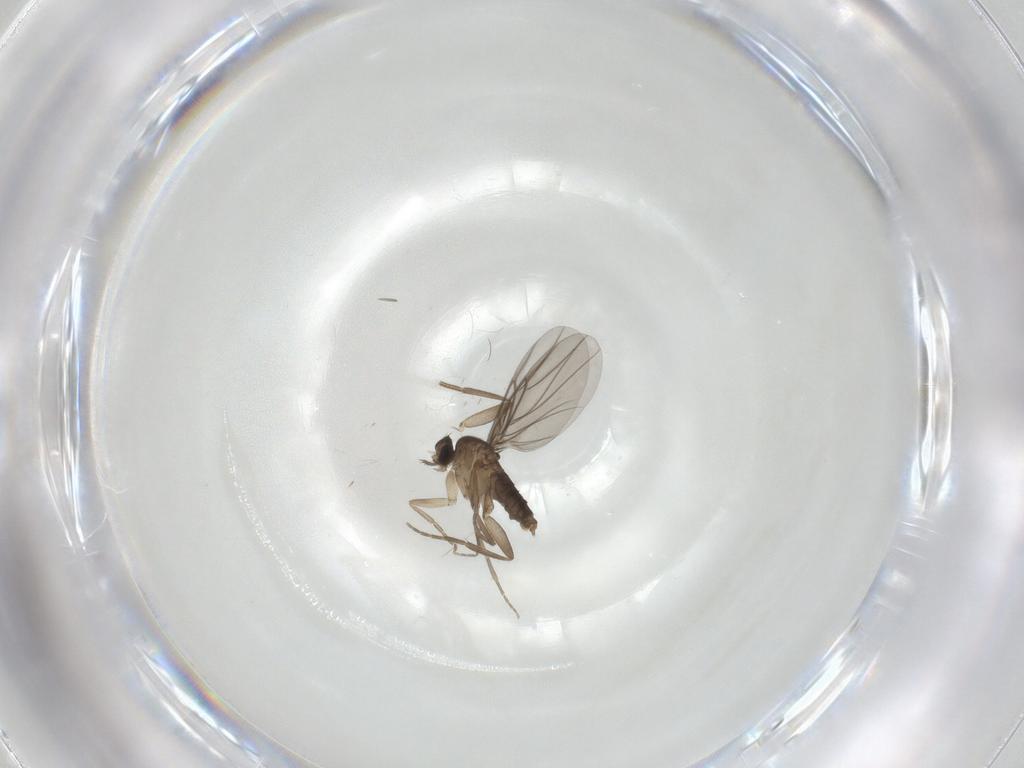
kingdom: Animalia
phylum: Arthropoda
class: Insecta
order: Diptera
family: Phoridae
